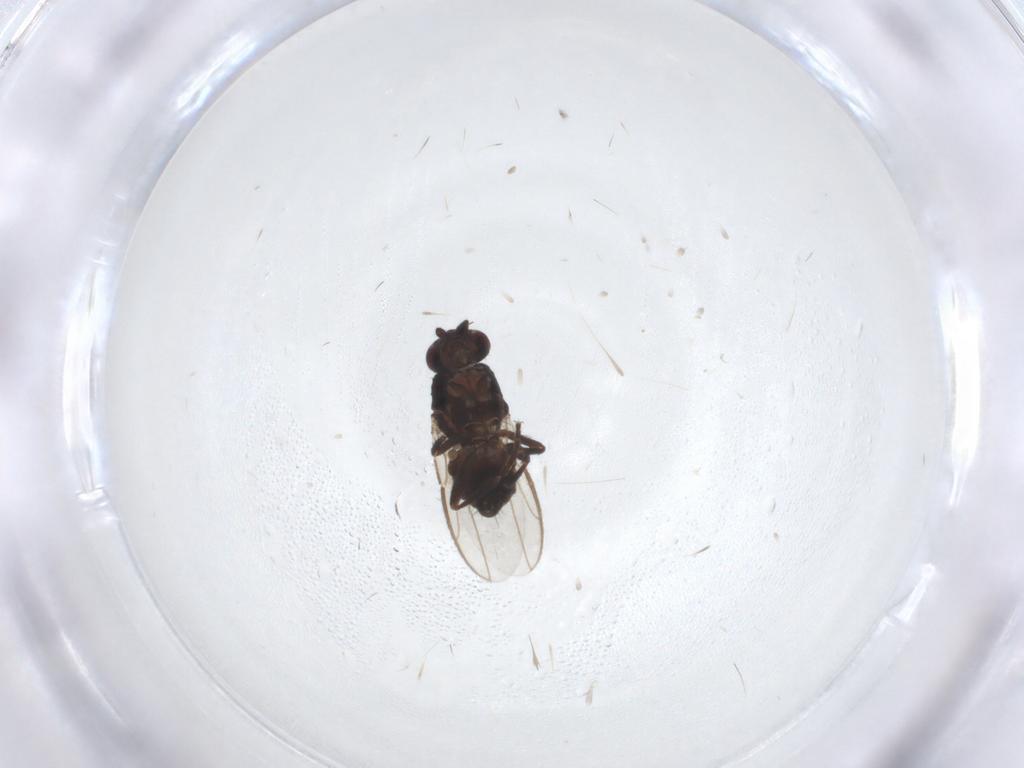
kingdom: Animalia
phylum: Arthropoda
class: Insecta
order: Diptera
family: Sphaeroceridae
